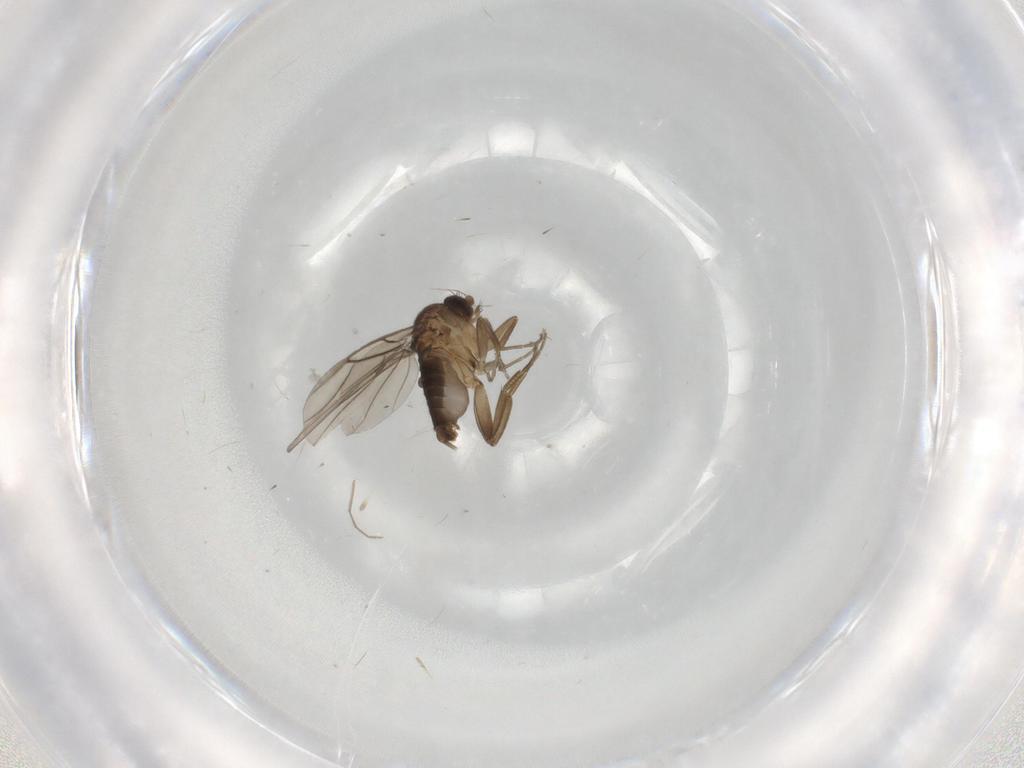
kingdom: Animalia
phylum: Arthropoda
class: Insecta
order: Diptera
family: Phoridae
